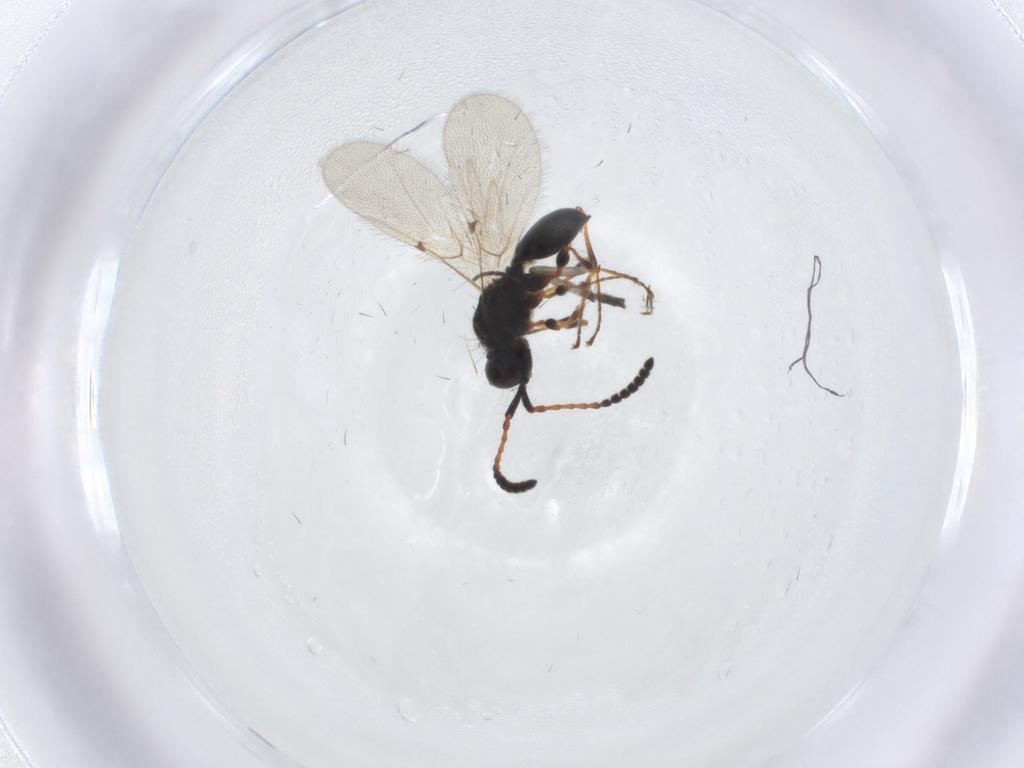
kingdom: Animalia
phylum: Arthropoda
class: Insecta
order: Hymenoptera
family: Diapriidae
